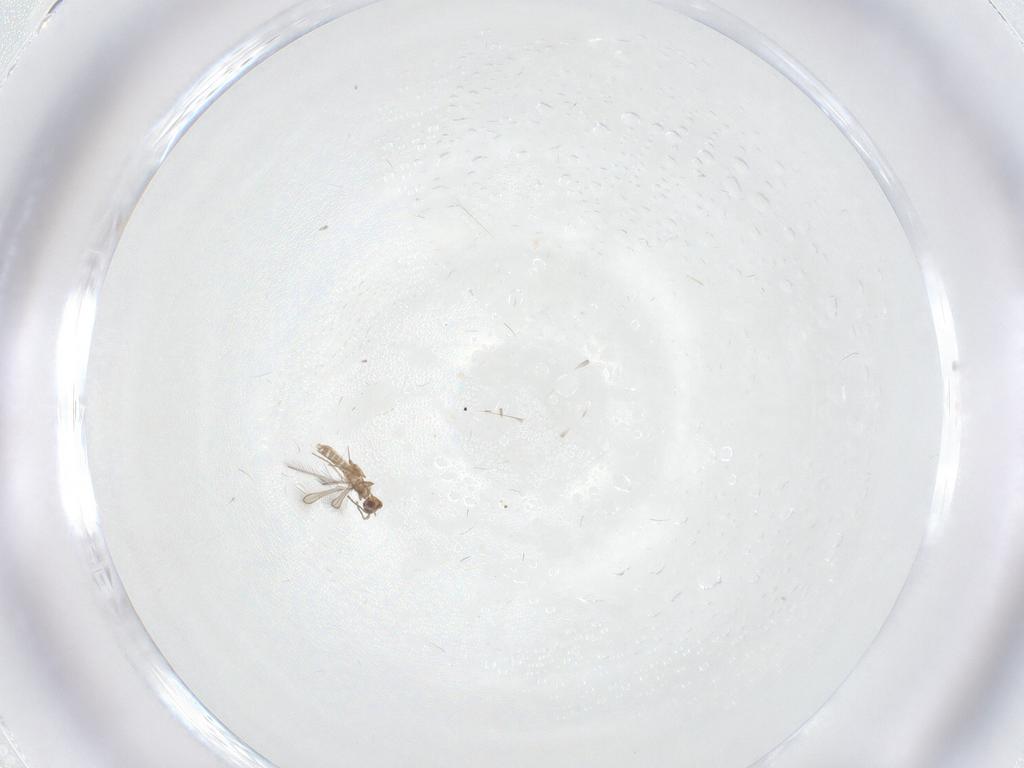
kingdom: Animalia
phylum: Arthropoda
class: Insecta
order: Hymenoptera
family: Mymaridae
